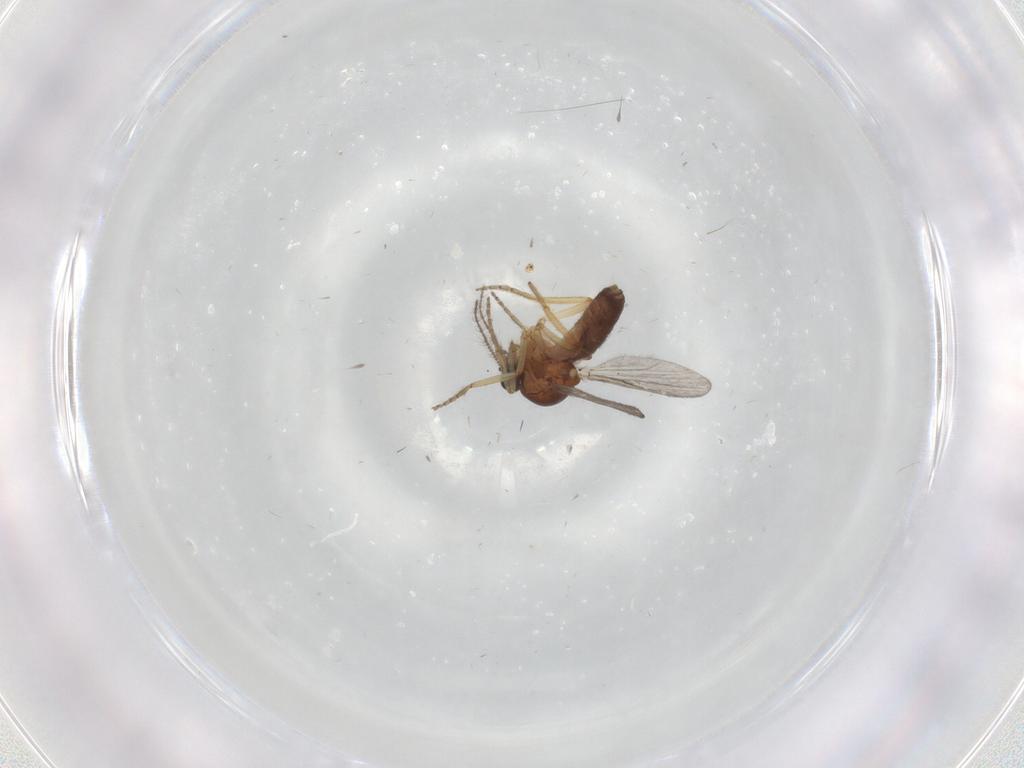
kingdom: Animalia
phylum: Arthropoda
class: Insecta
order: Diptera
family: Ceratopogonidae
